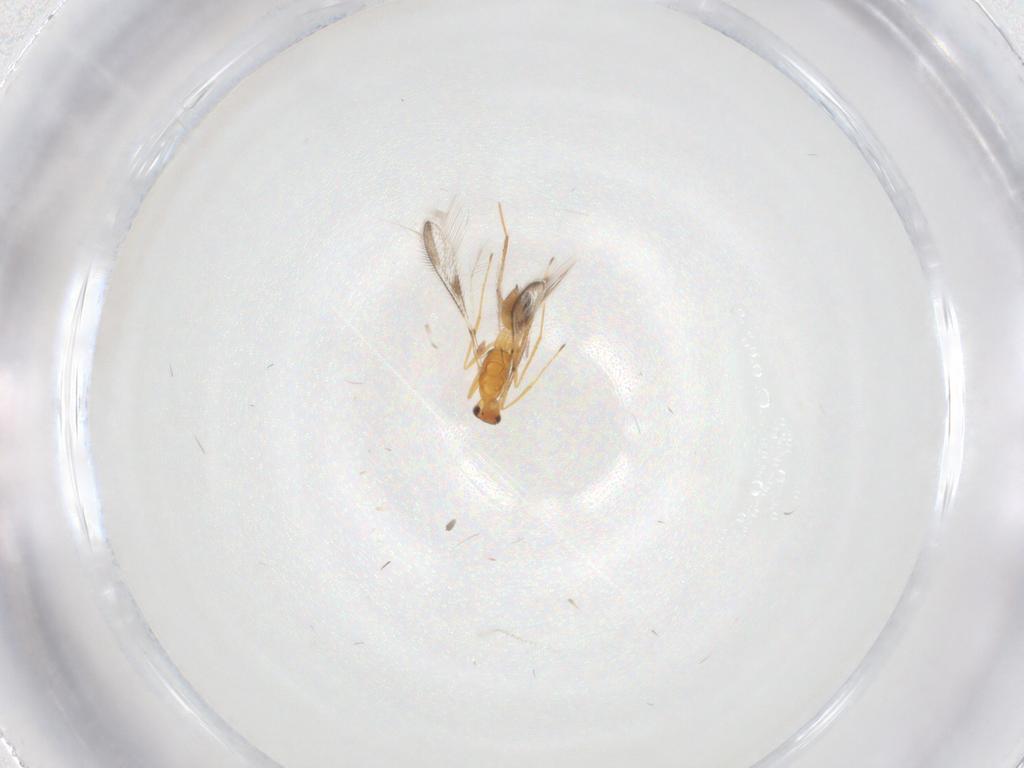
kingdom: Animalia
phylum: Arthropoda
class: Insecta
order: Hymenoptera
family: Mymaridae
